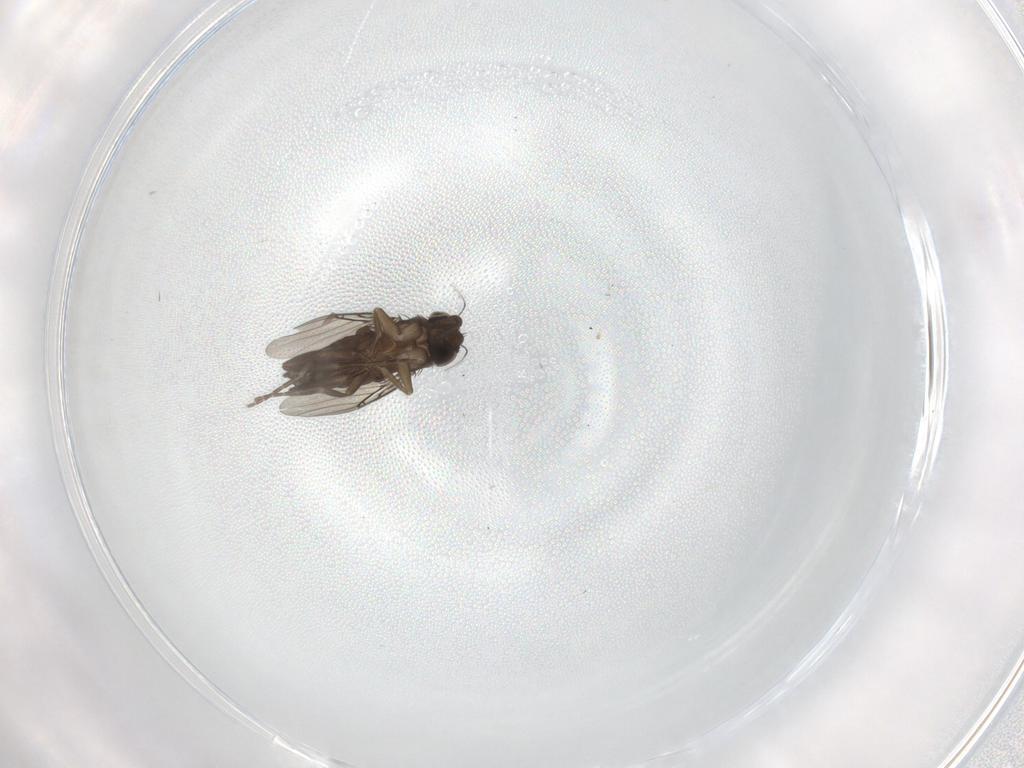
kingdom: Animalia
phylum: Arthropoda
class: Insecta
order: Diptera
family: Phoridae
